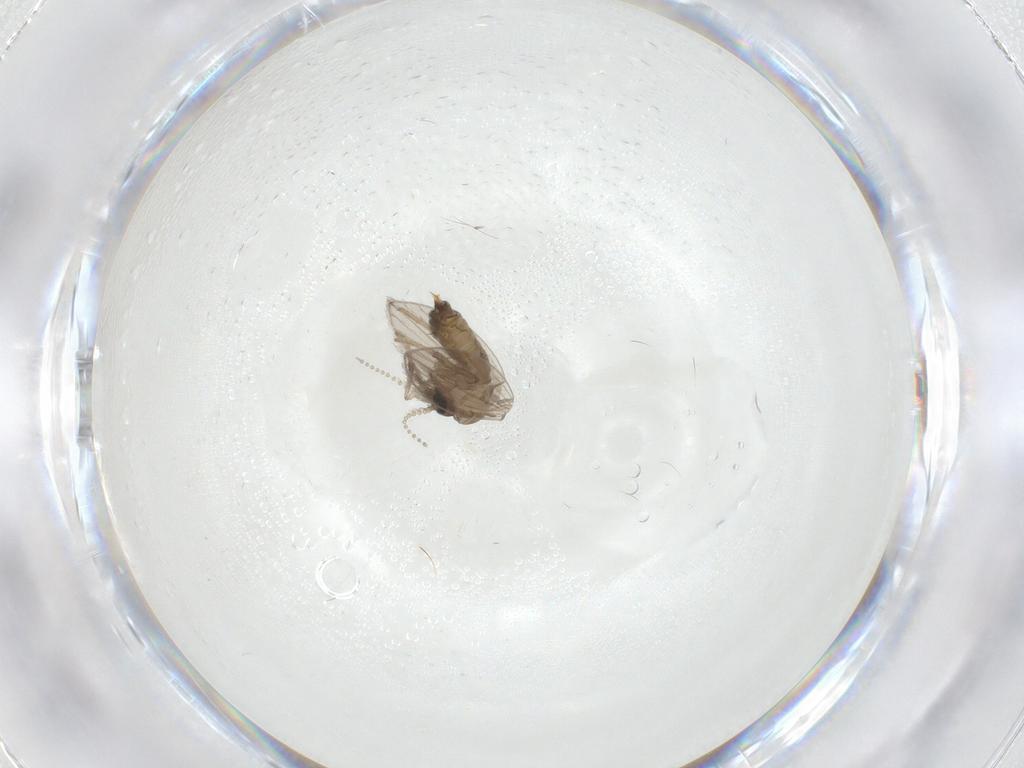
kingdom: Animalia
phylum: Arthropoda
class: Insecta
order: Diptera
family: Psychodidae
